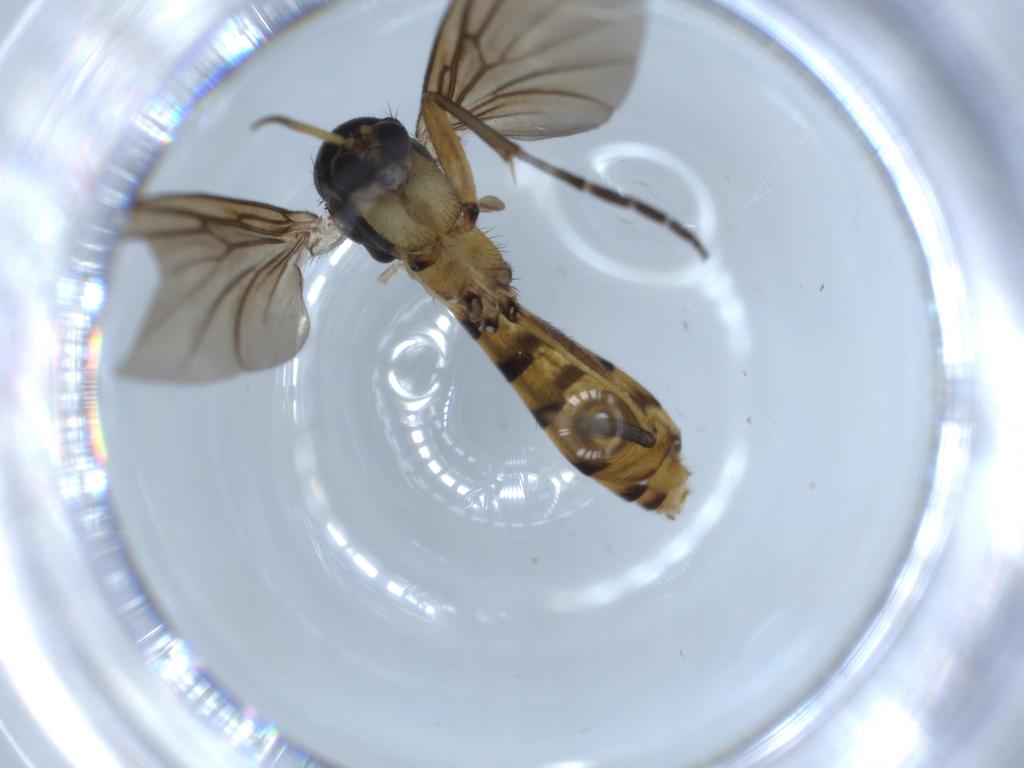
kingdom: Animalia
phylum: Arthropoda
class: Insecta
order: Diptera
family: Mycetophilidae
